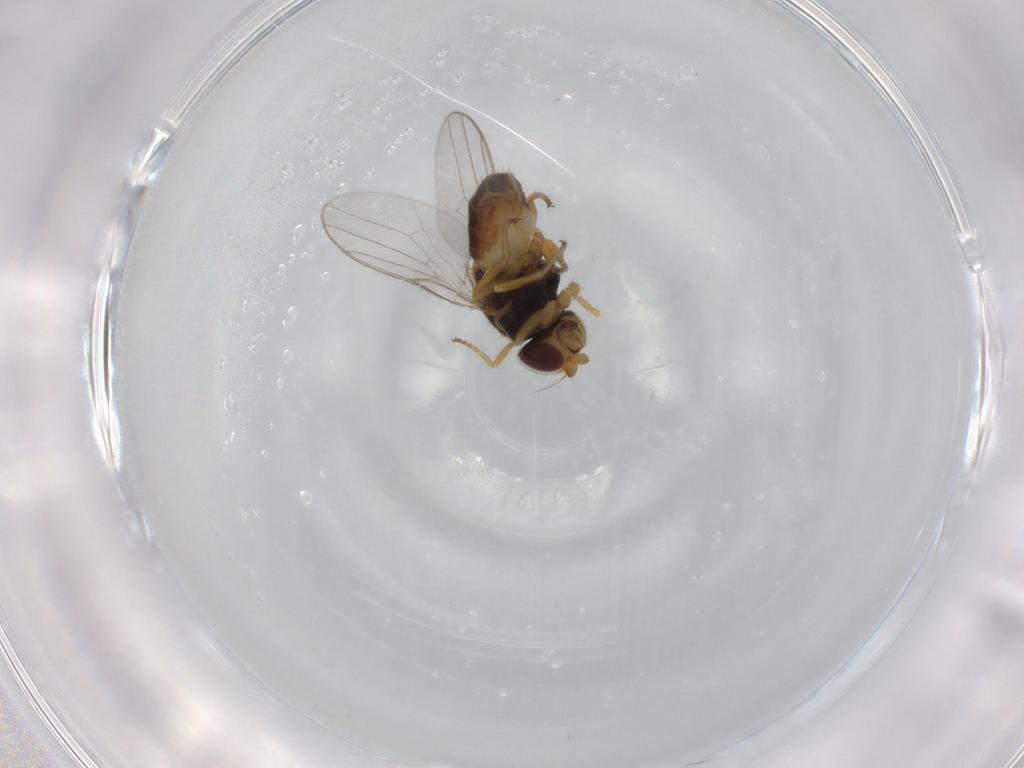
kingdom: Animalia
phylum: Arthropoda
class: Insecta
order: Diptera
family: Chloropidae
